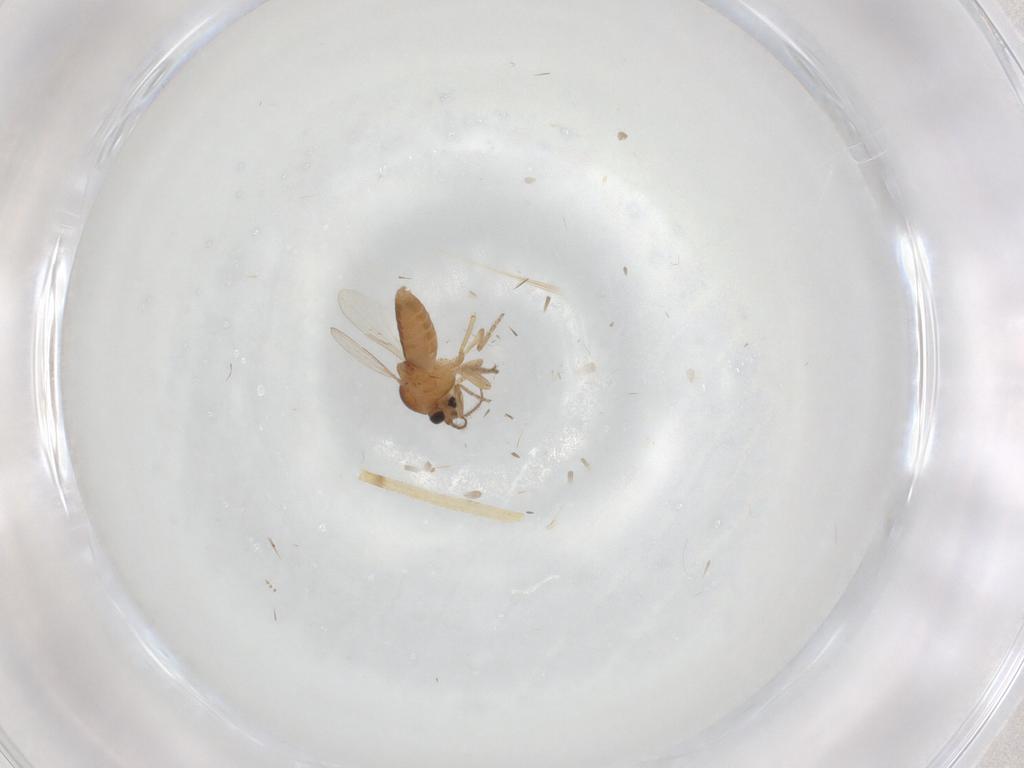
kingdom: Animalia
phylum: Arthropoda
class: Insecta
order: Diptera
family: Ceratopogonidae
